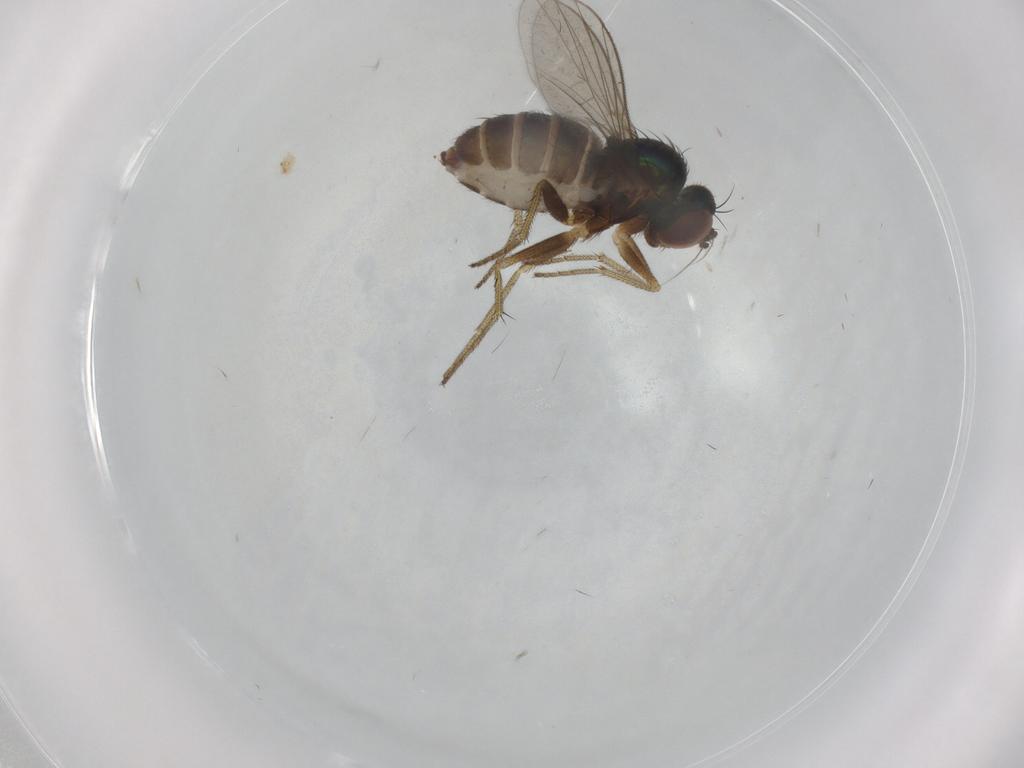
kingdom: Animalia
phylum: Arthropoda
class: Insecta
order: Diptera
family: Dolichopodidae
